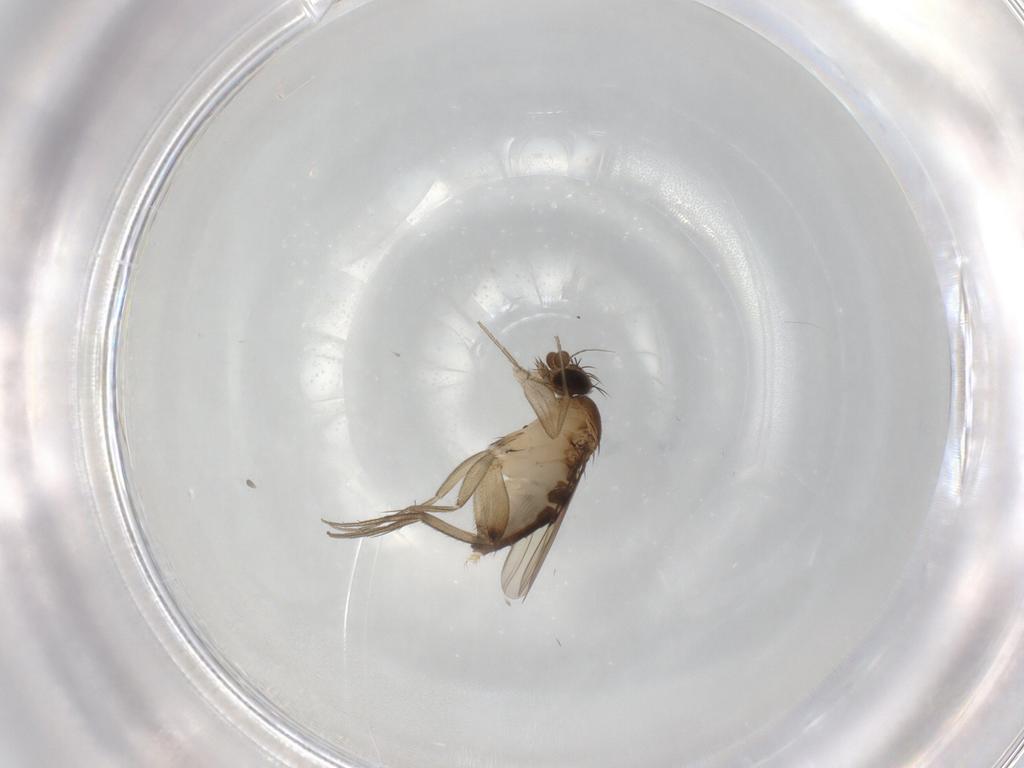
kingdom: Animalia
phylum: Arthropoda
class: Insecta
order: Diptera
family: Phoridae
